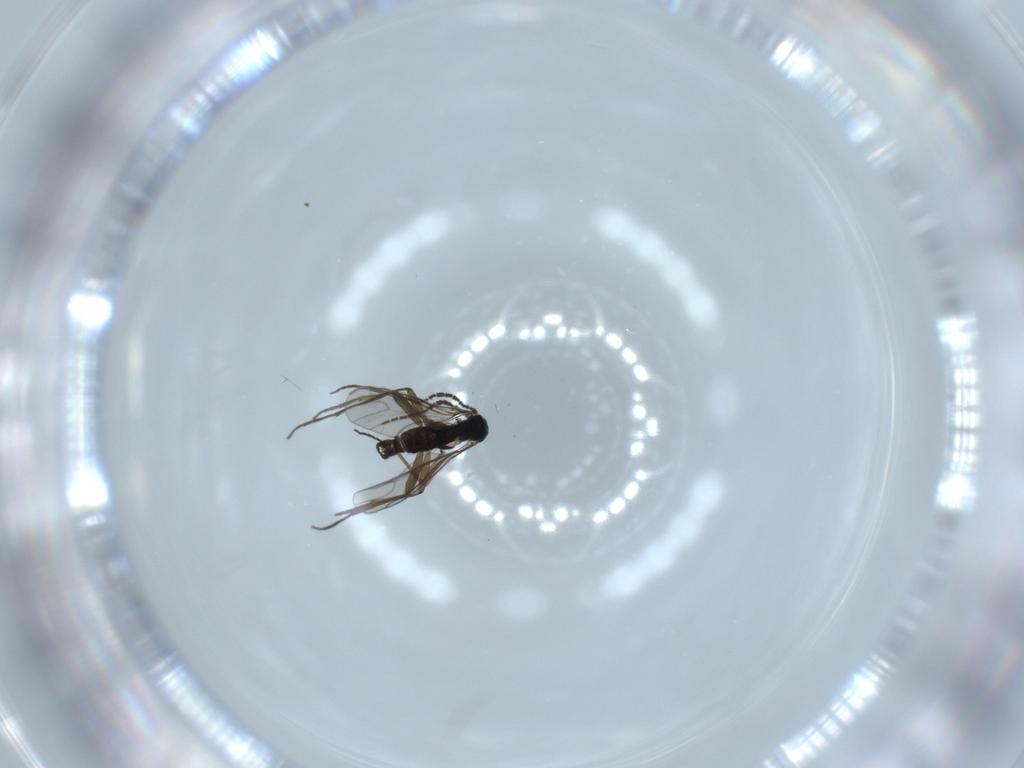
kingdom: Animalia
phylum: Arthropoda
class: Insecta
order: Diptera
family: Sciaridae
